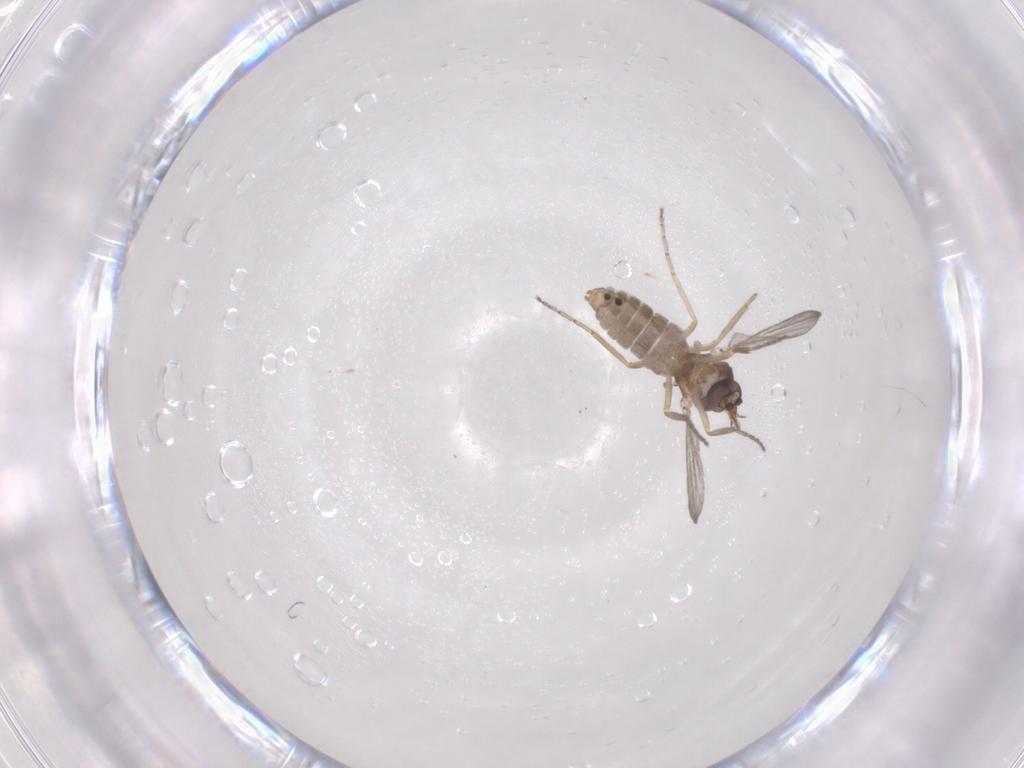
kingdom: Animalia
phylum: Arthropoda
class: Insecta
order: Diptera
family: Ceratopogonidae
